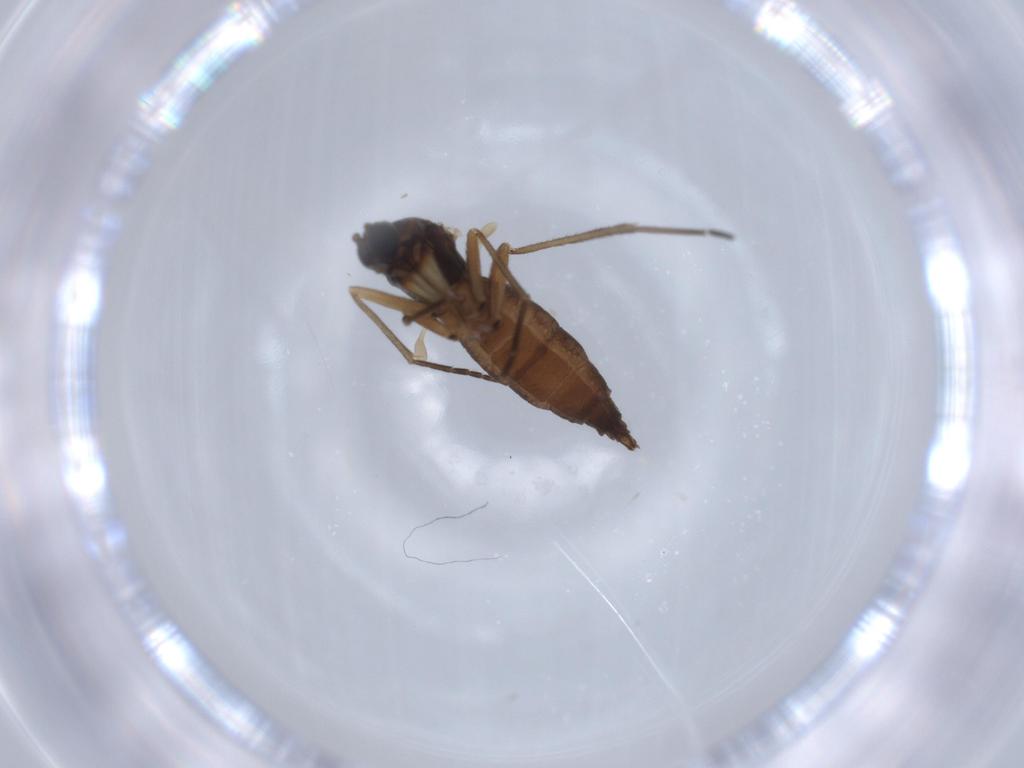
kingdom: Animalia
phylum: Arthropoda
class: Insecta
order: Diptera
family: Sciaridae
